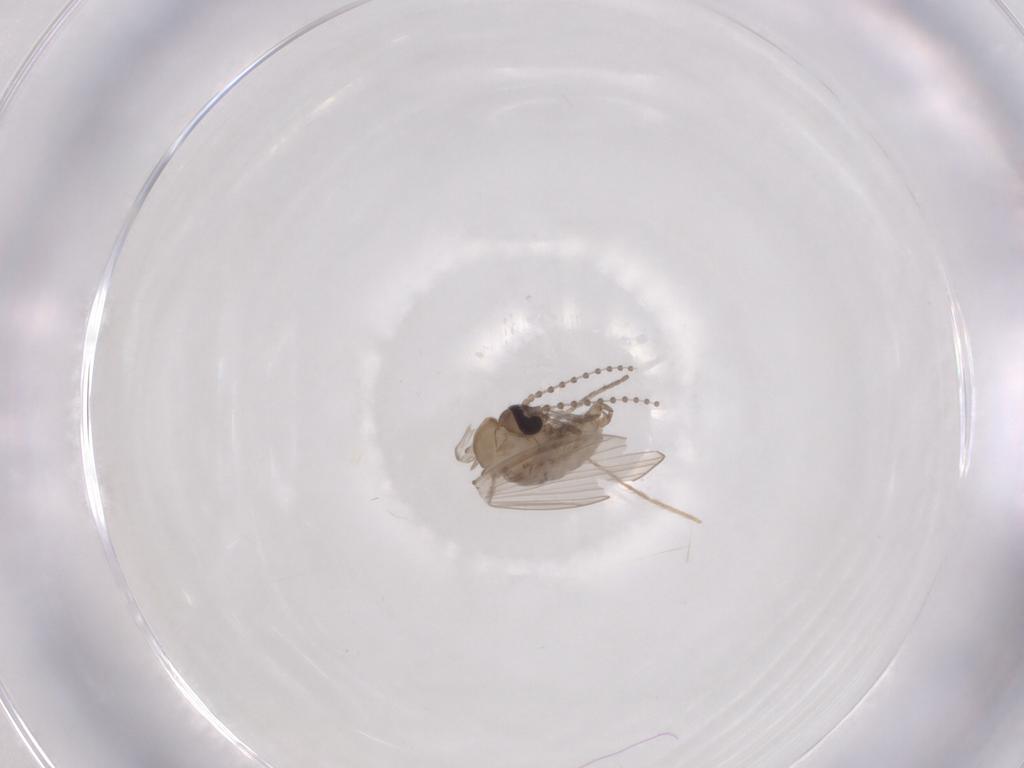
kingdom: Animalia
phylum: Arthropoda
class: Insecta
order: Diptera
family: Psychodidae
